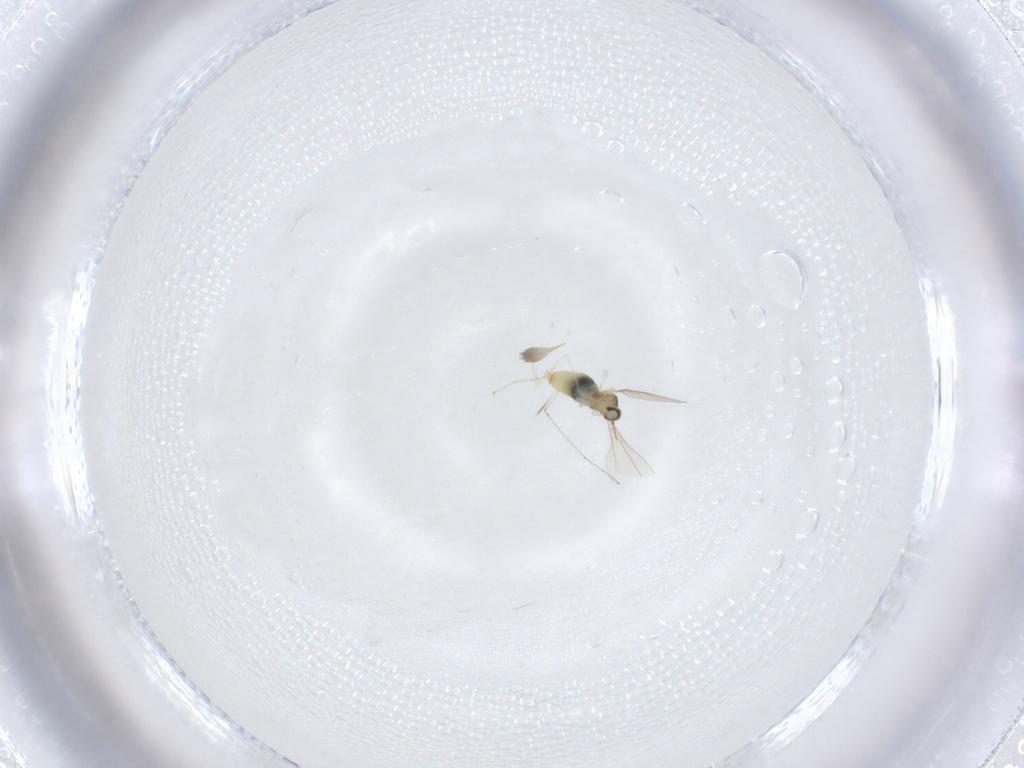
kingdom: Animalia
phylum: Arthropoda
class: Insecta
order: Diptera
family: Cecidomyiidae
